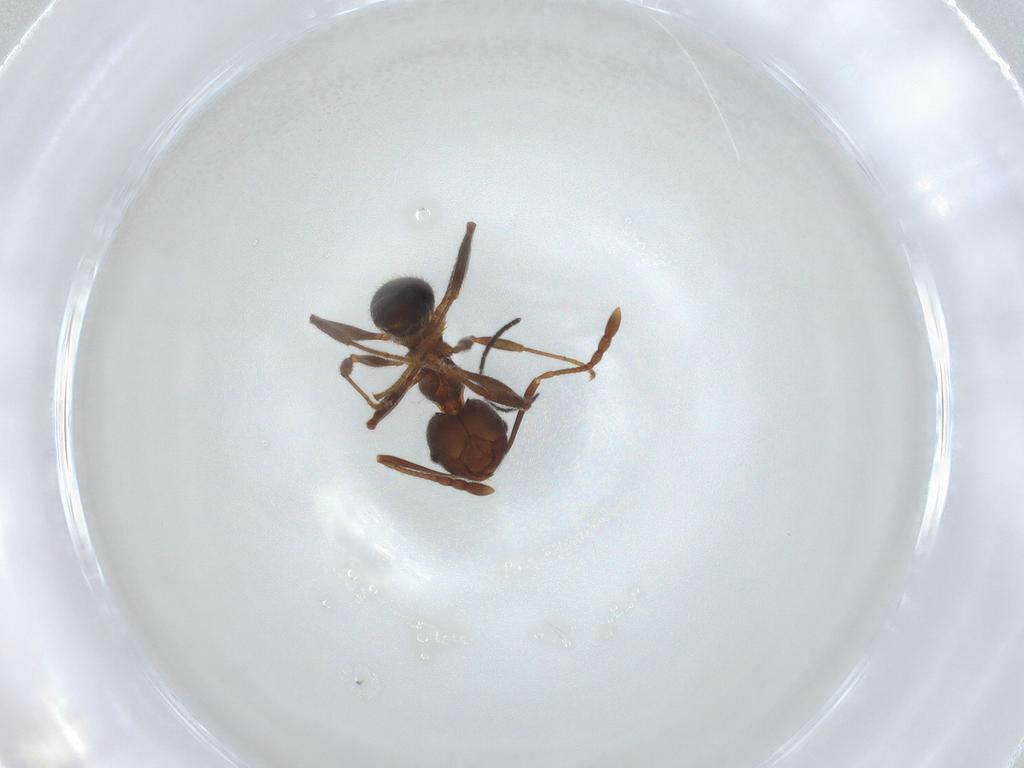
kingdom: Animalia
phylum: Arthropoda
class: Insecta
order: Hymenoptera
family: Formicidae
